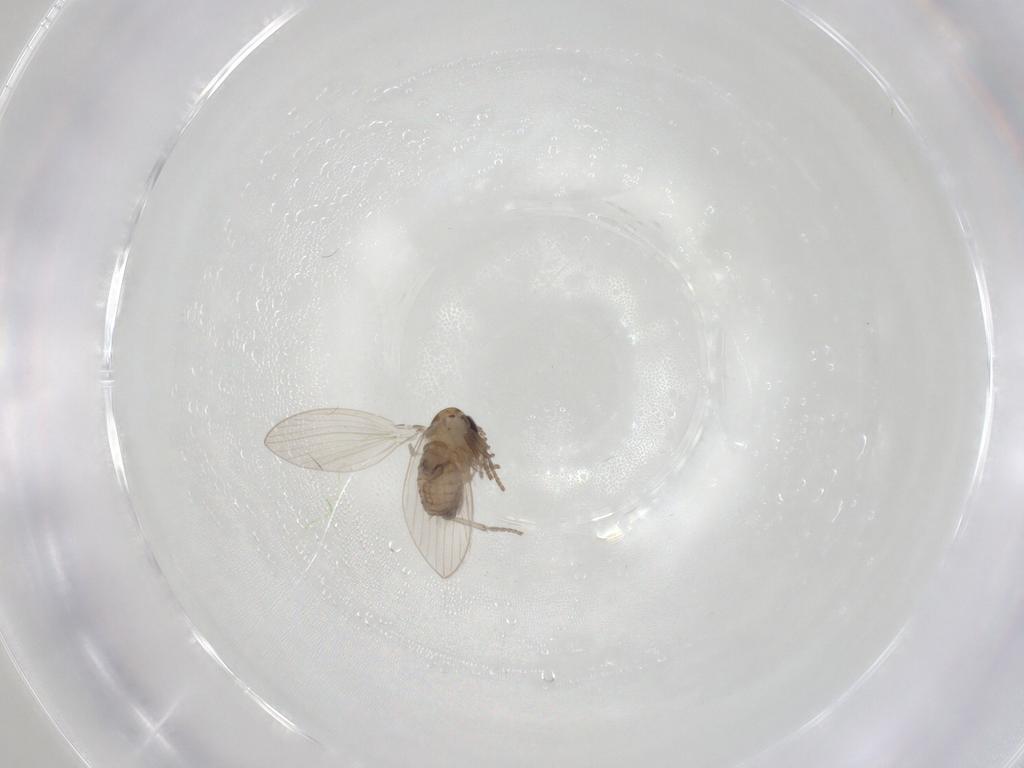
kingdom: Animalia
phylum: Arthropoda
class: Insecta
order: Diptera
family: Psychodidae
